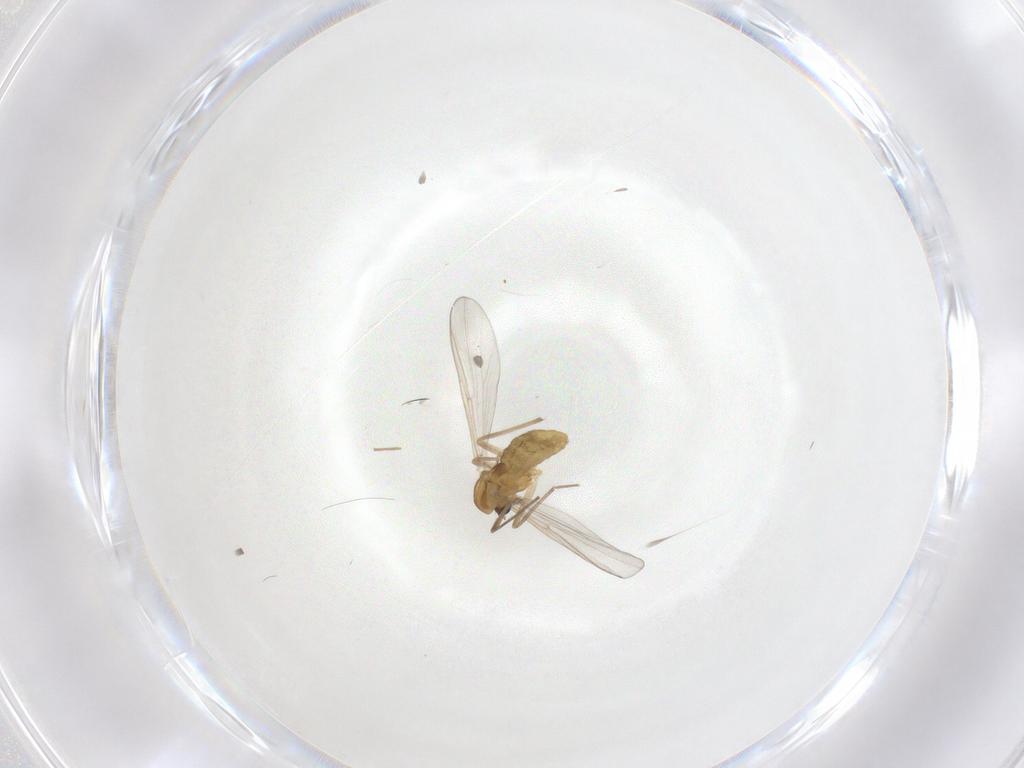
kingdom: Animalia
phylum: Arthropoda
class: Insecta
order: Diptera
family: Chironomidae
